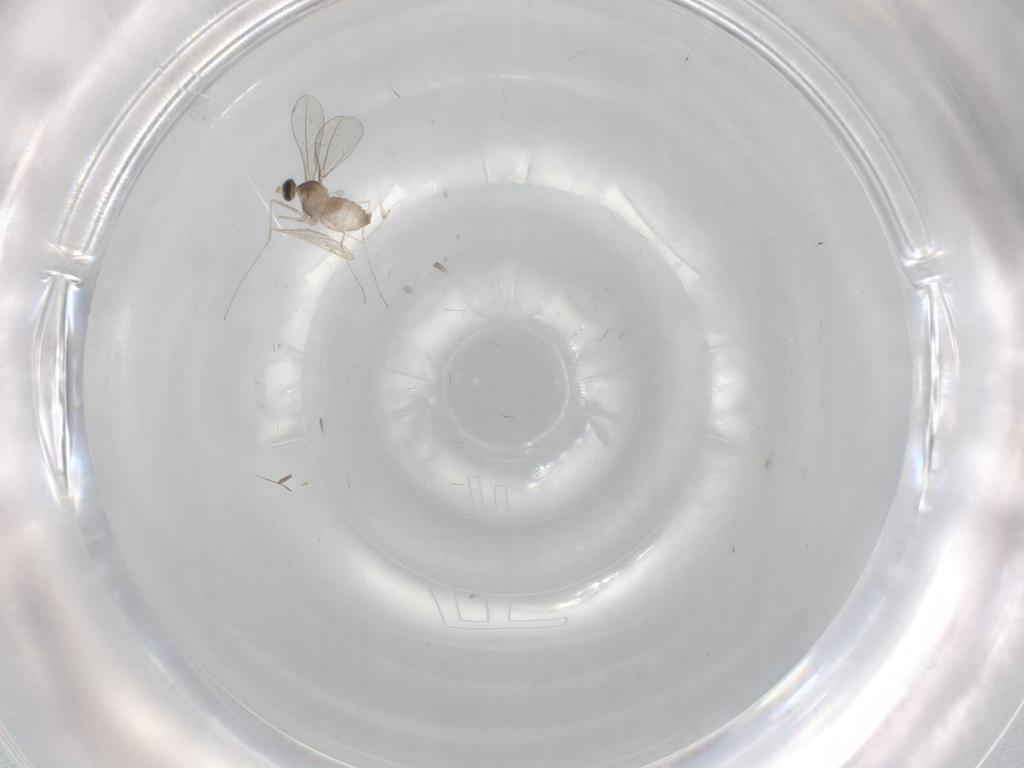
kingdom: Animalia
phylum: Arthropoda
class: Insecta
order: Diptera
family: Cecidomyiidae
